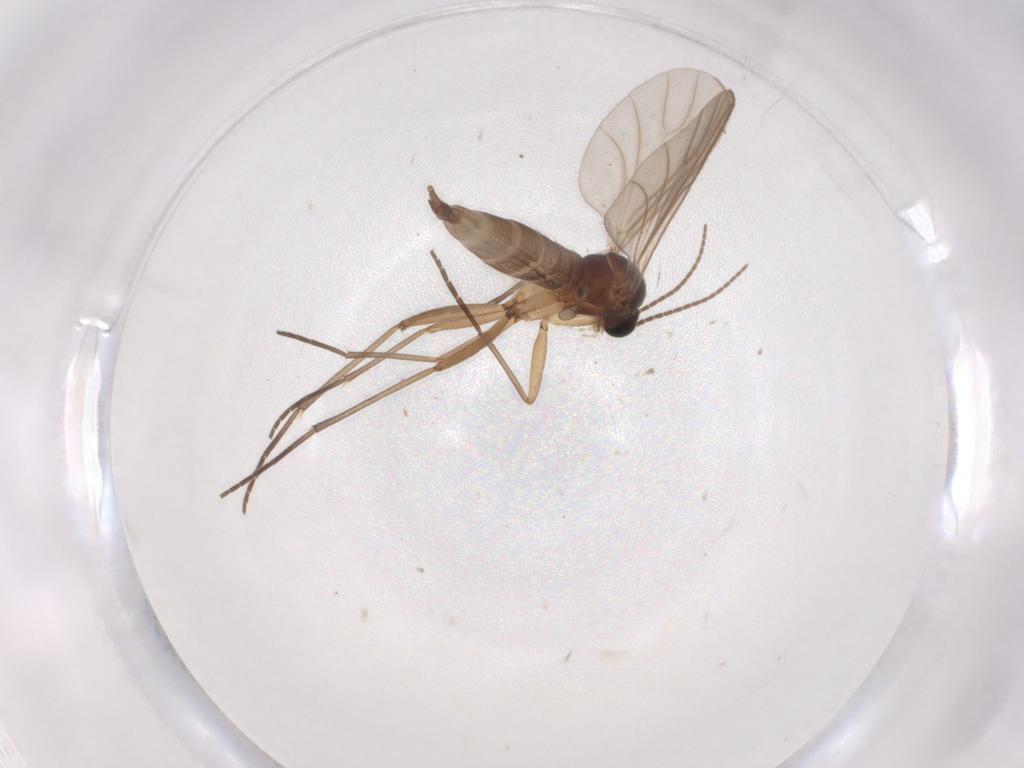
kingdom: Animalia
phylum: Arthropoda
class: Insecta
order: Diptera
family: Sciaridae
